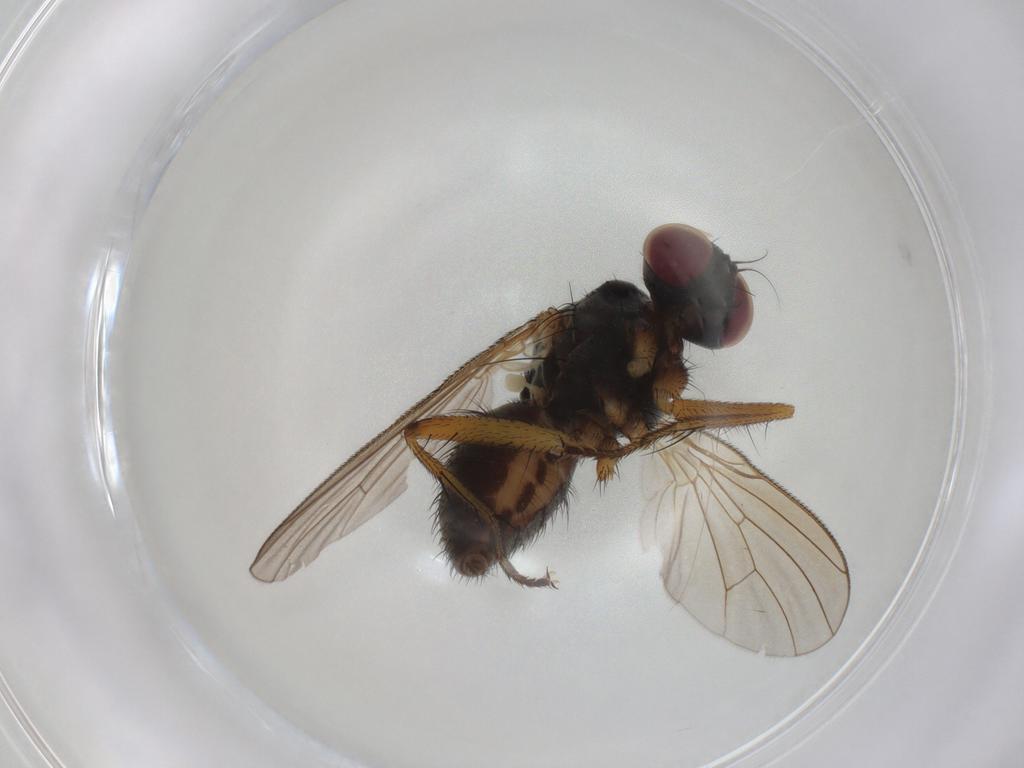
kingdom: Animalia
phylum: Arthropoda
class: Insecta
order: Diptera
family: Muscidae
